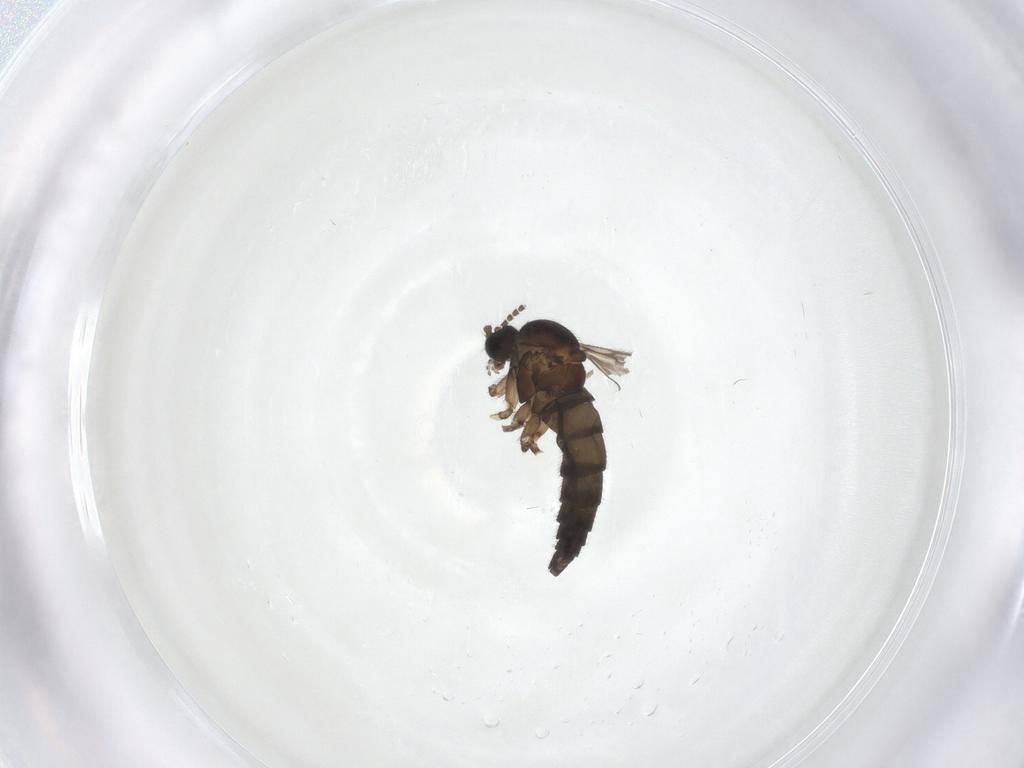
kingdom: Animalia
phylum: Arthropoda
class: Insecta
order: Diptera
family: Sciaridae
